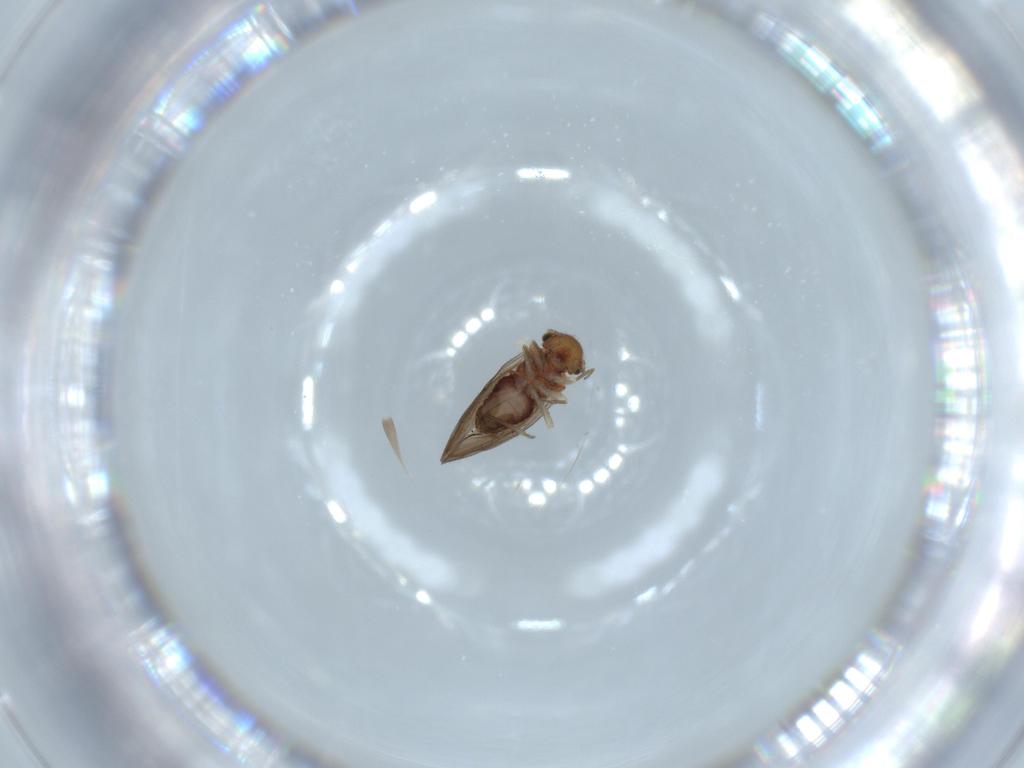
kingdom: Animalia
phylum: Arthropoda
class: Insecta
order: Psocodea
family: Ectopsocidae
